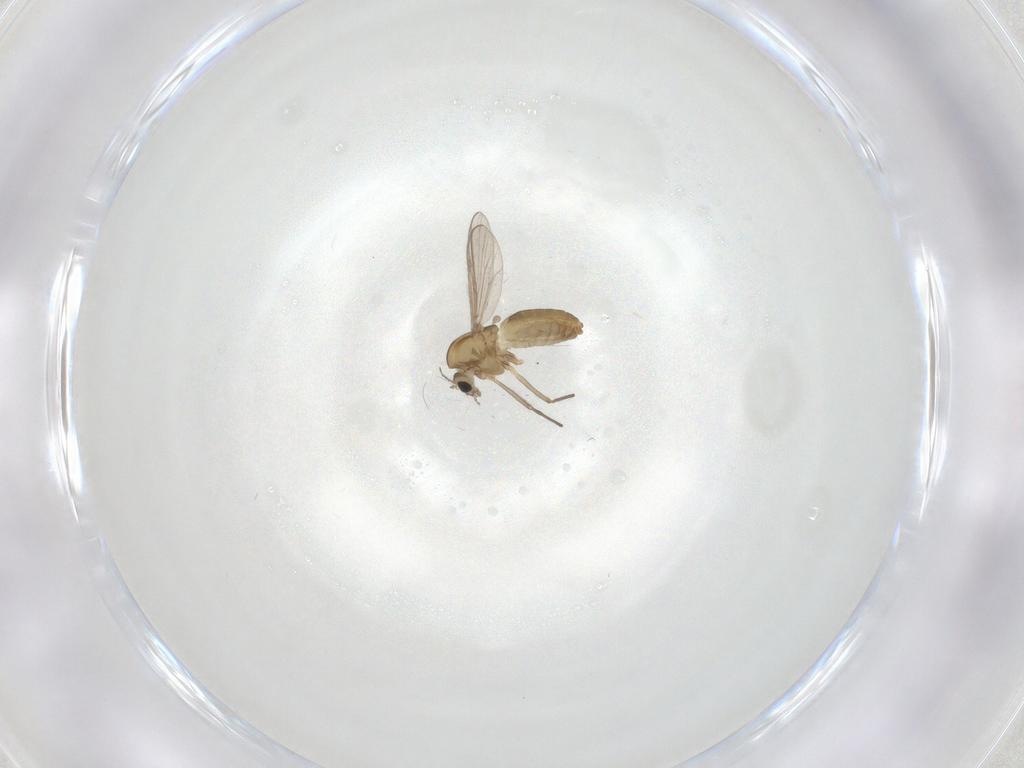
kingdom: Animalia
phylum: Arthropoda
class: Insecta
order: Diptera
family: Chironomidae
